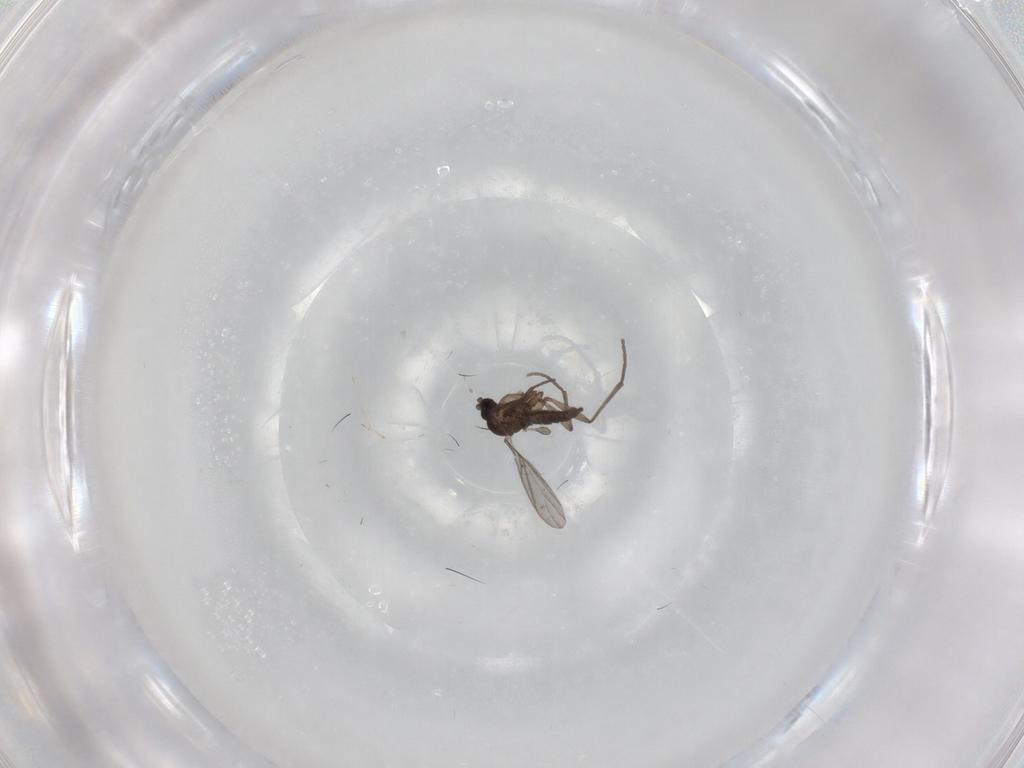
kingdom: Animalia
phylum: Arthropoda
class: Insecta
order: Diptera
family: Sciaridae
